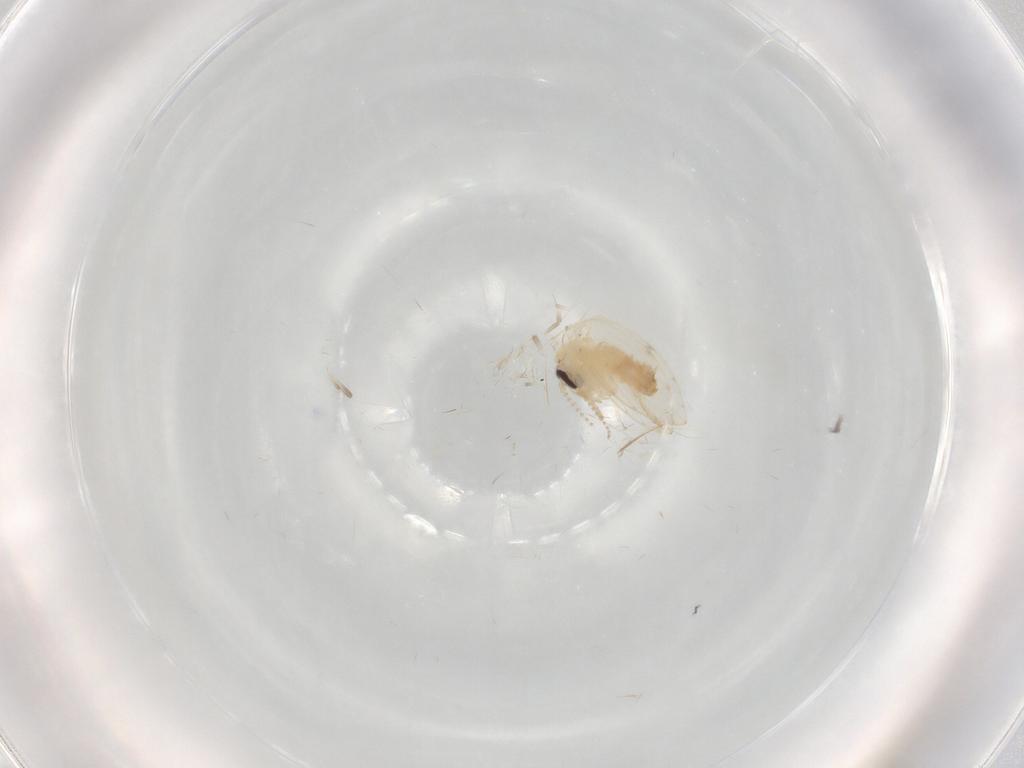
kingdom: Animalia
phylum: Arthropoda
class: Insecta
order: Diptera
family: Psychodidae
